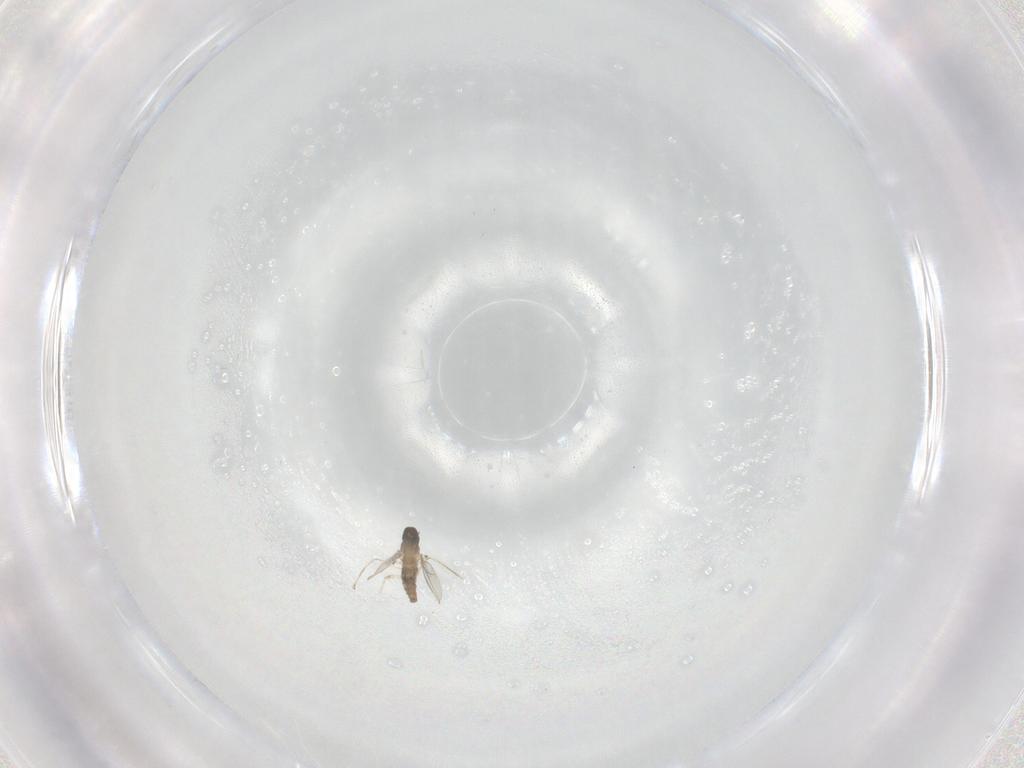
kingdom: Animalia
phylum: Arthropoda
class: Insecta
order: Diptera
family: Cecidomyiidae
